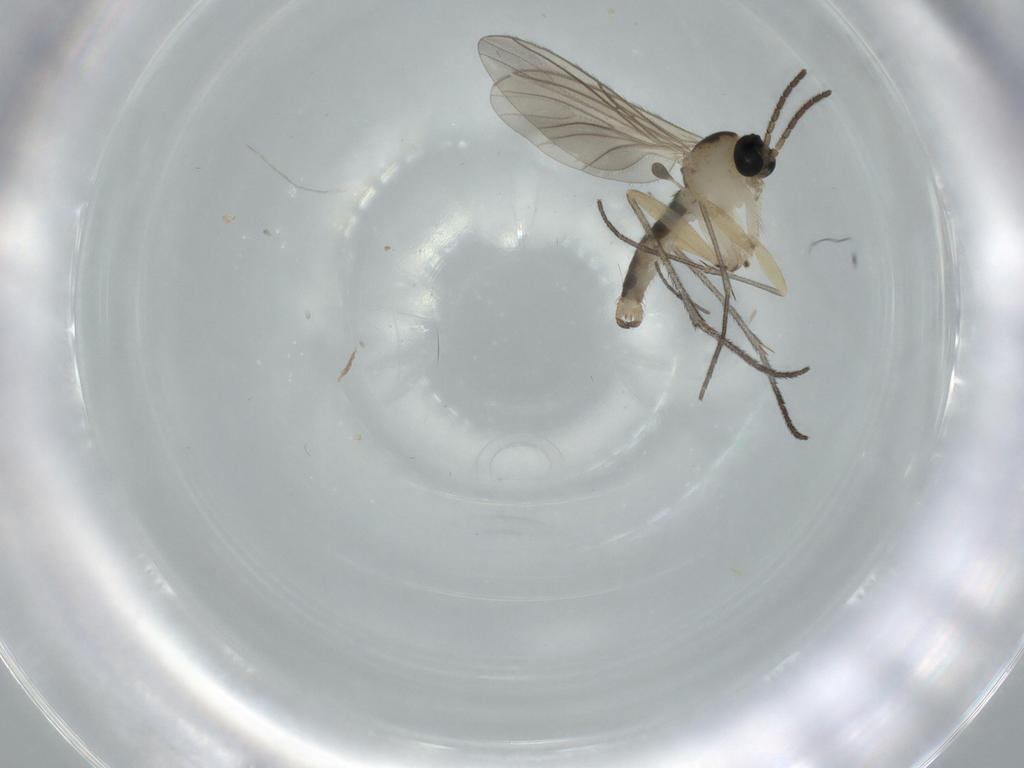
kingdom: Animalia
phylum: Arthropoda
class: Insecta
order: Diptera
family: Sciaridae
